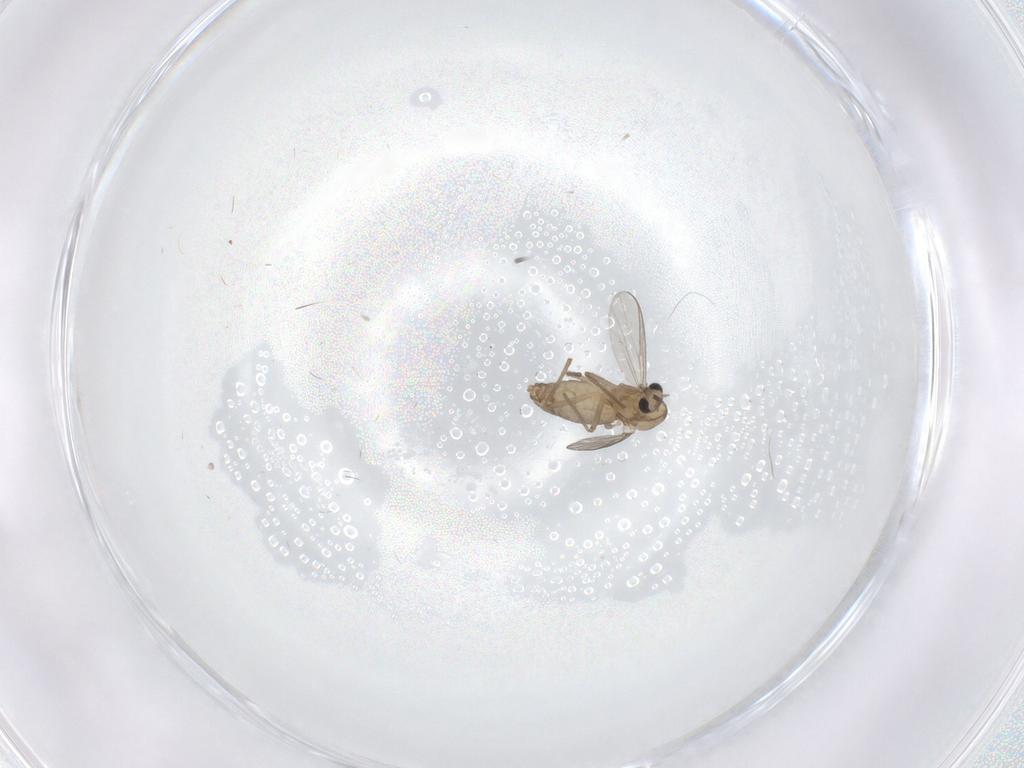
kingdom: Animalia
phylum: Arthropoda
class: Insecta
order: Diptera
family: Chironomidae
